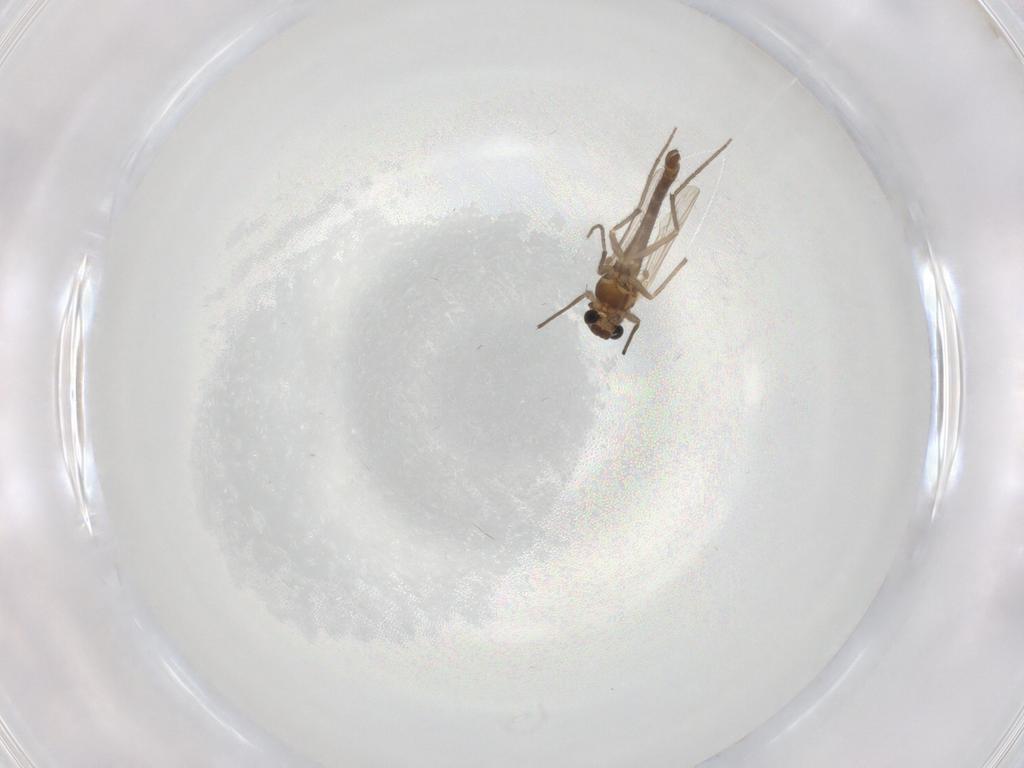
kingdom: Animalia
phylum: Arthropoda
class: Insecta
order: Diptera
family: Chironomidae
